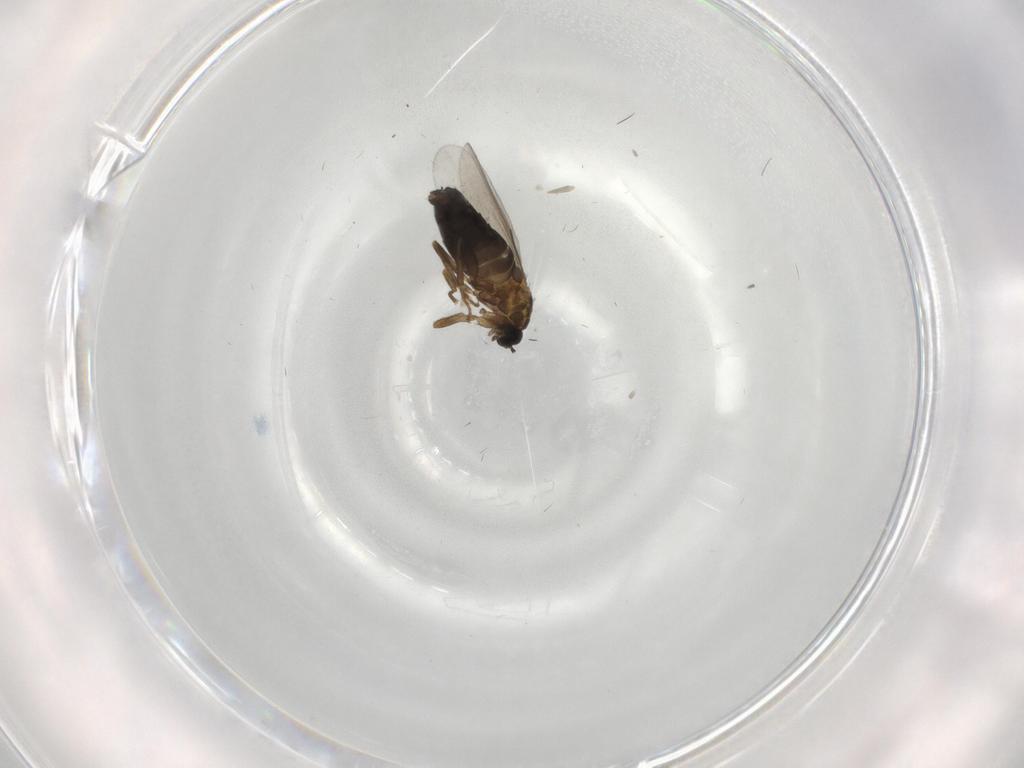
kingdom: Animalia
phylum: Arthropoda
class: Insecta
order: Diptera
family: Scatopsidae
